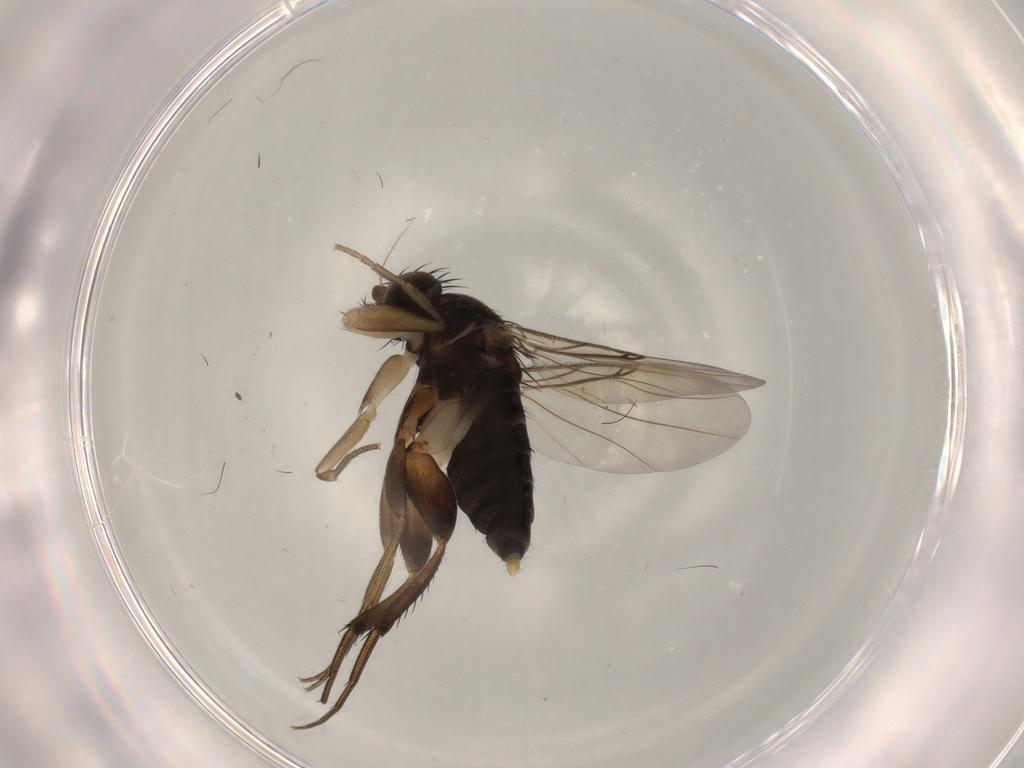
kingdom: Animalia
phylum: Arthropoda
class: Insecta
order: Diptera
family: Phoridae
